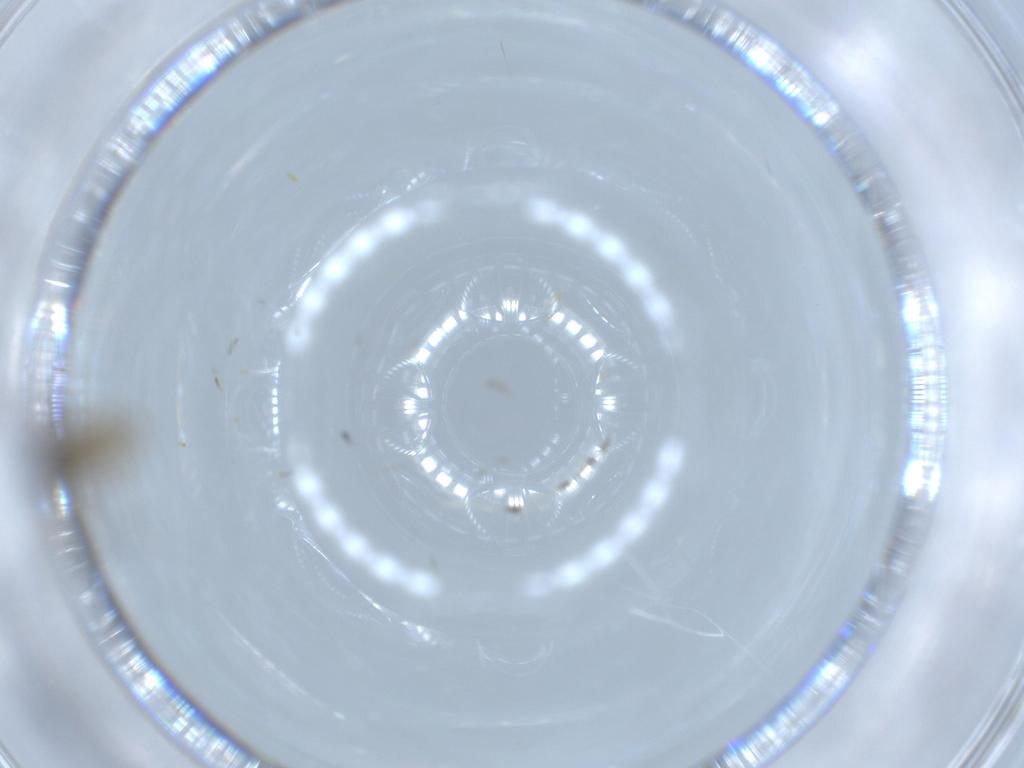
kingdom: Animalia
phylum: Arthropoda
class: Insecta
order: Diptera
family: Cecidomyiidae
